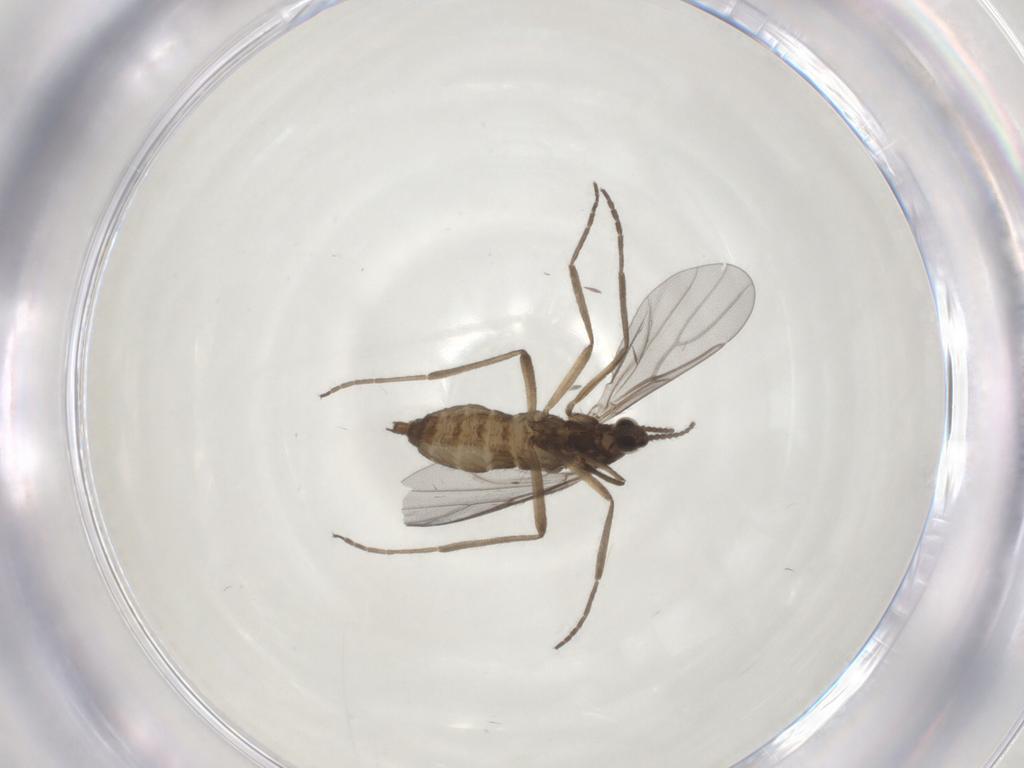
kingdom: Animalia
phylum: Arthropoda
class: Insecta
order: Diptera
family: Cecidomyiidae
